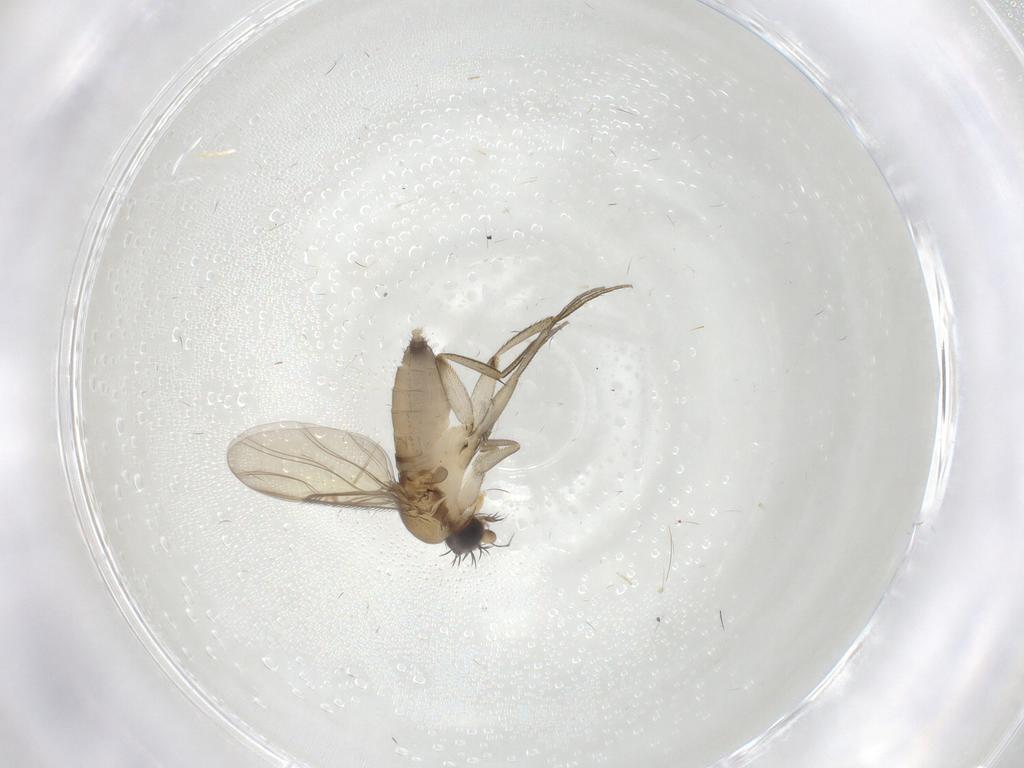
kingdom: Animalia
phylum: Arthropoda
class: Insecta
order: Diptera
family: Phoridae
